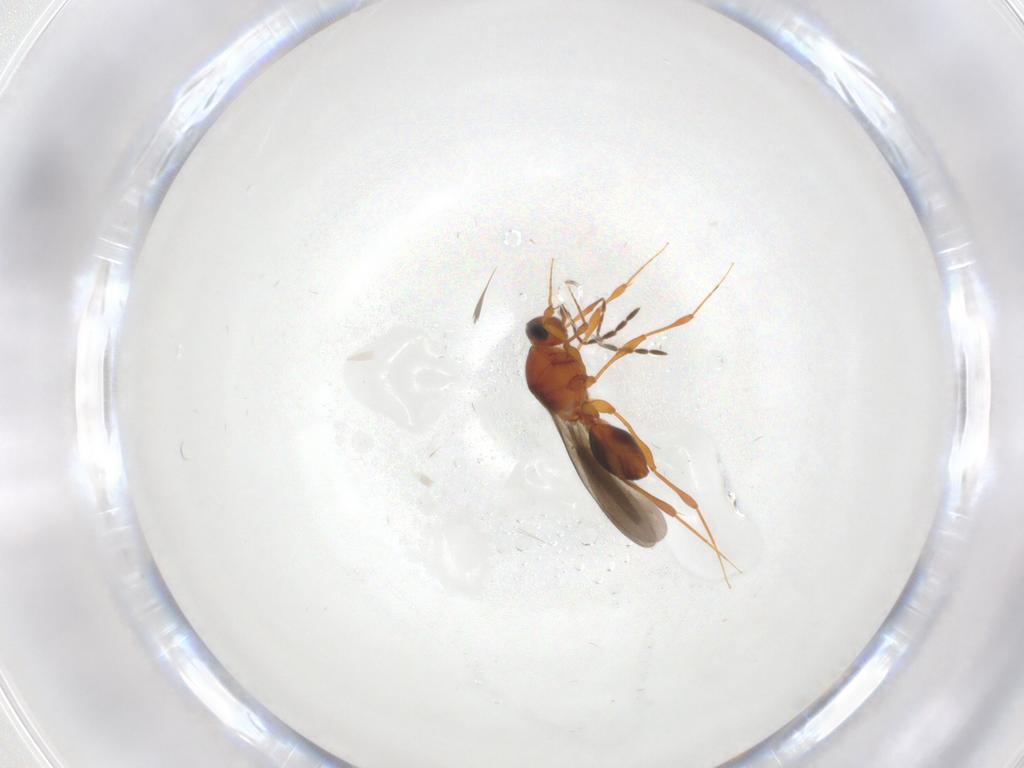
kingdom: Animalia
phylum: Arthropoda
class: Insecta
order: Hymenoptera
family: Platygastridae
